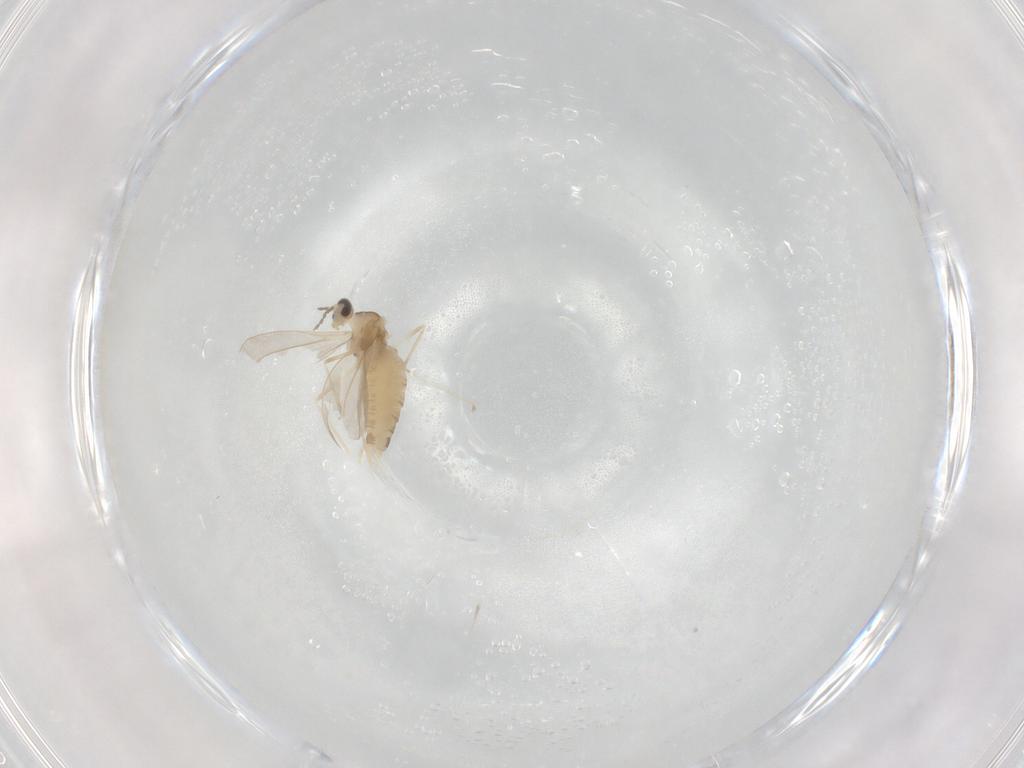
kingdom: Animalia
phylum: Arthropoda
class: Insecta
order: Diptera
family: Cecidomyiidae
